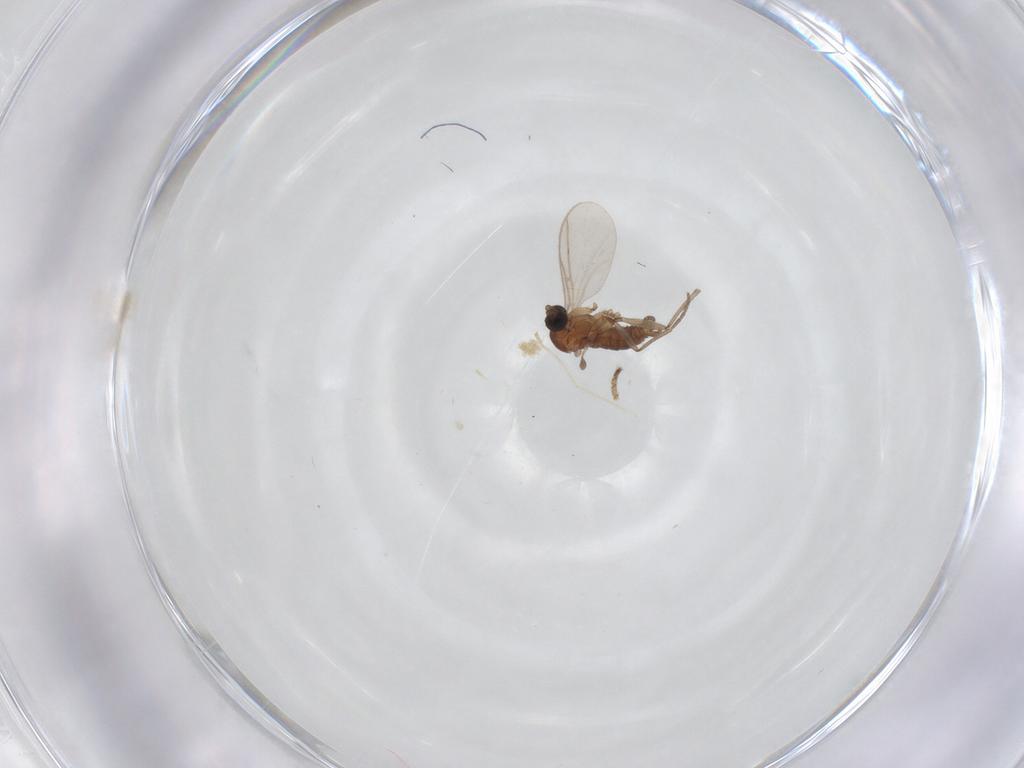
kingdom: Animalia
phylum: Arthropoda
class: Insecta
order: Diptera
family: Dolichopodidae
